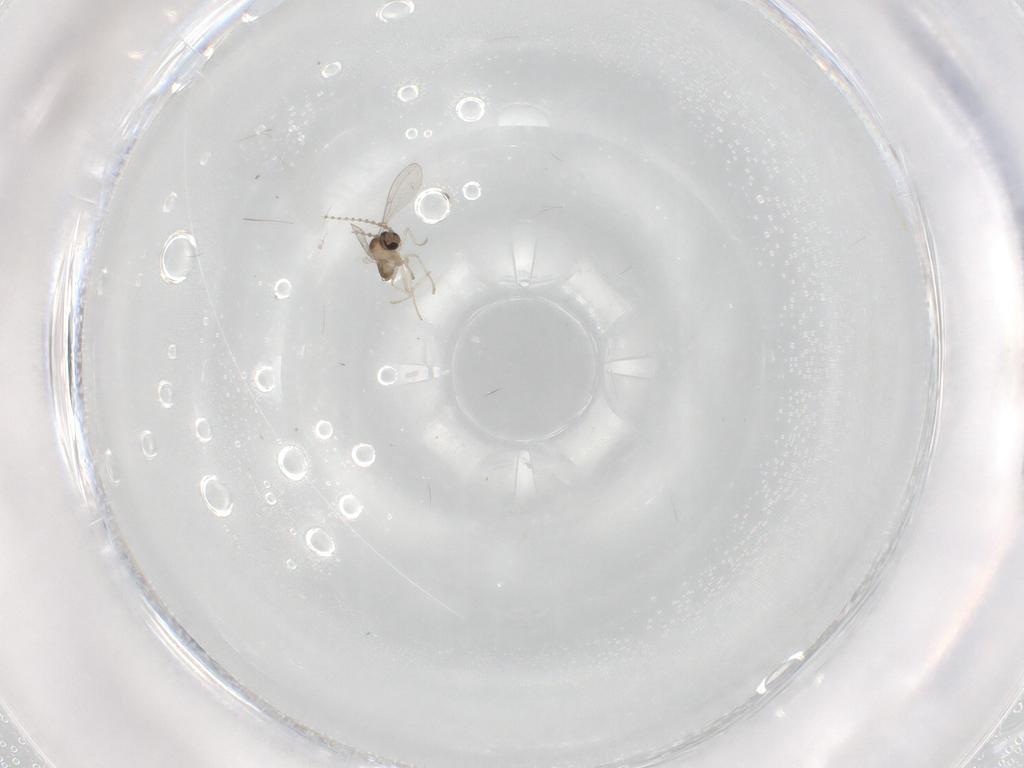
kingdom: Animalia
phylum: Arthropoda
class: Insecta
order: Diptera
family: Cecidomyiidae
